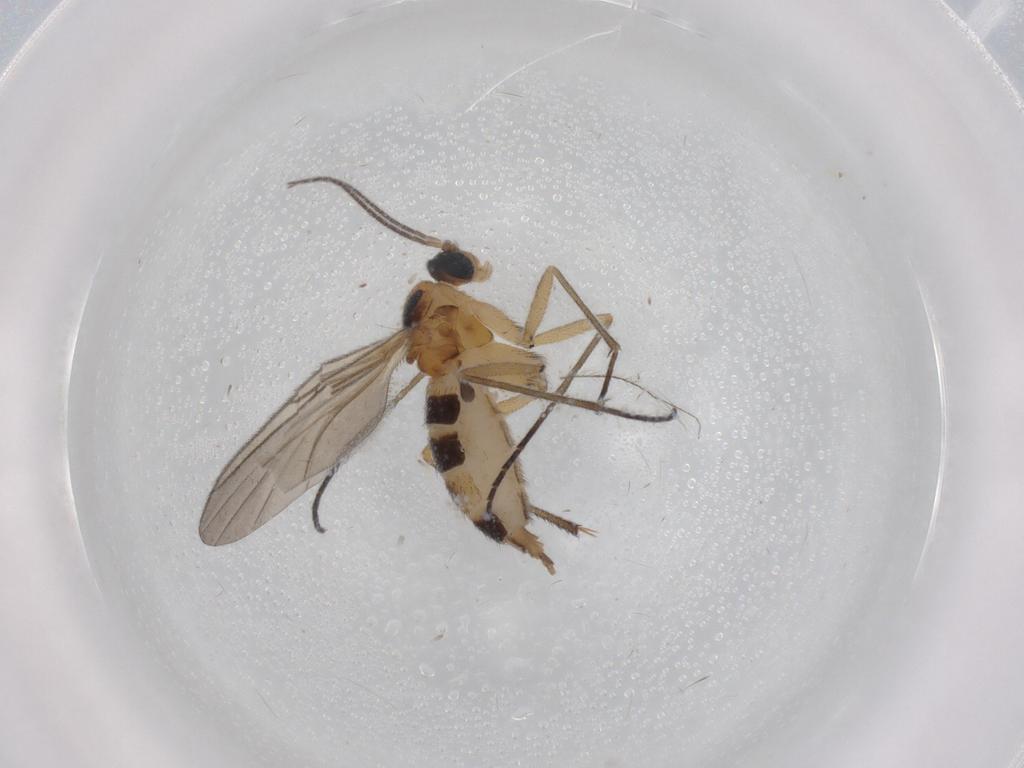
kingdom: Animalia
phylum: Arthropoda
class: Insecta
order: Diptera
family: Sciaridae
